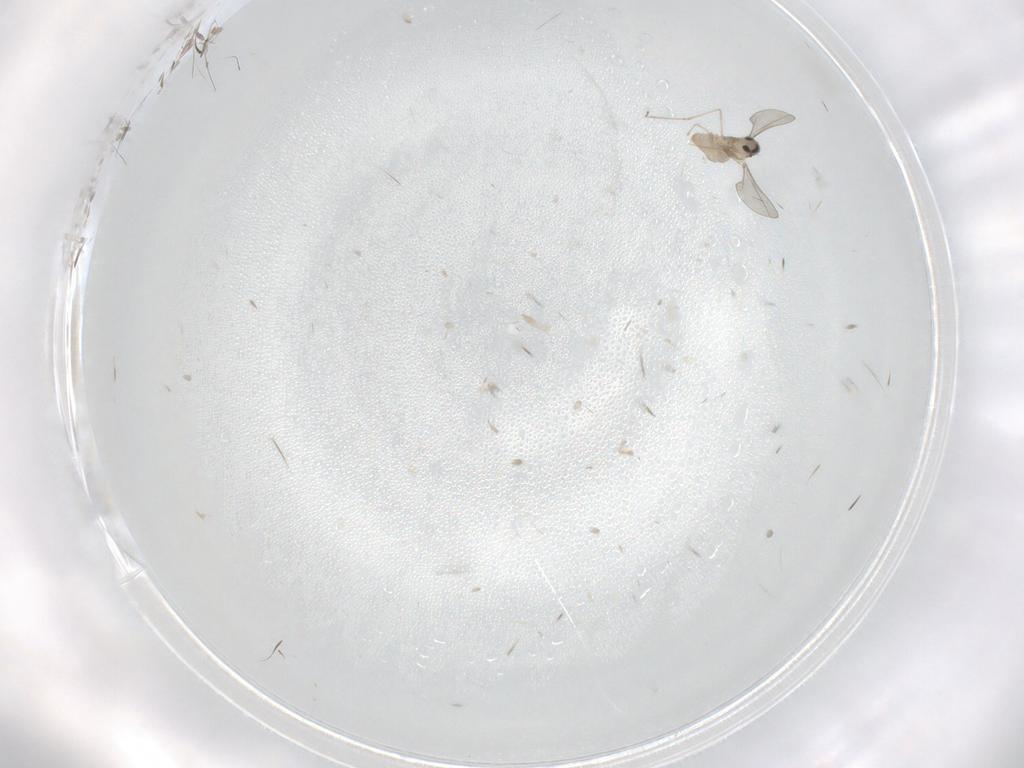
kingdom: Animalia
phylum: Arthropoda
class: Insecta
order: Diptera
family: Cecidomyiidae
